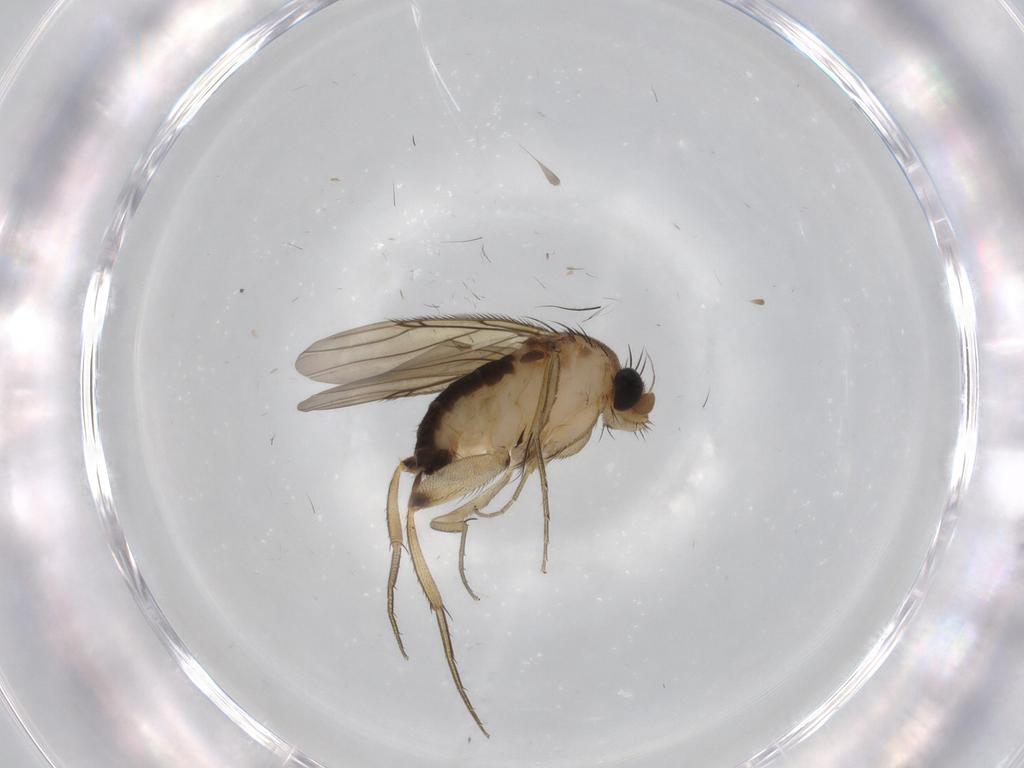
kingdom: Animalia
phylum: Arthropoda
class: Insecta
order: Diptera
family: Phoridae
